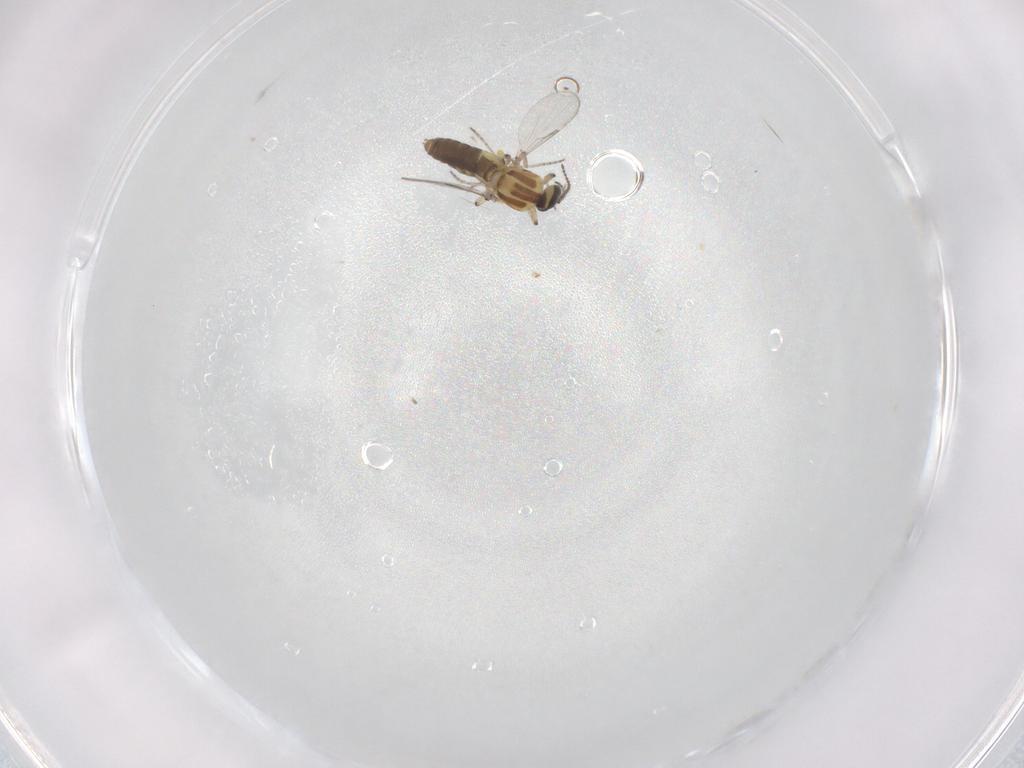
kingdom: Animalia
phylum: Arthropoda
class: Insecta
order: Diptera
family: Ceratopogonidae
